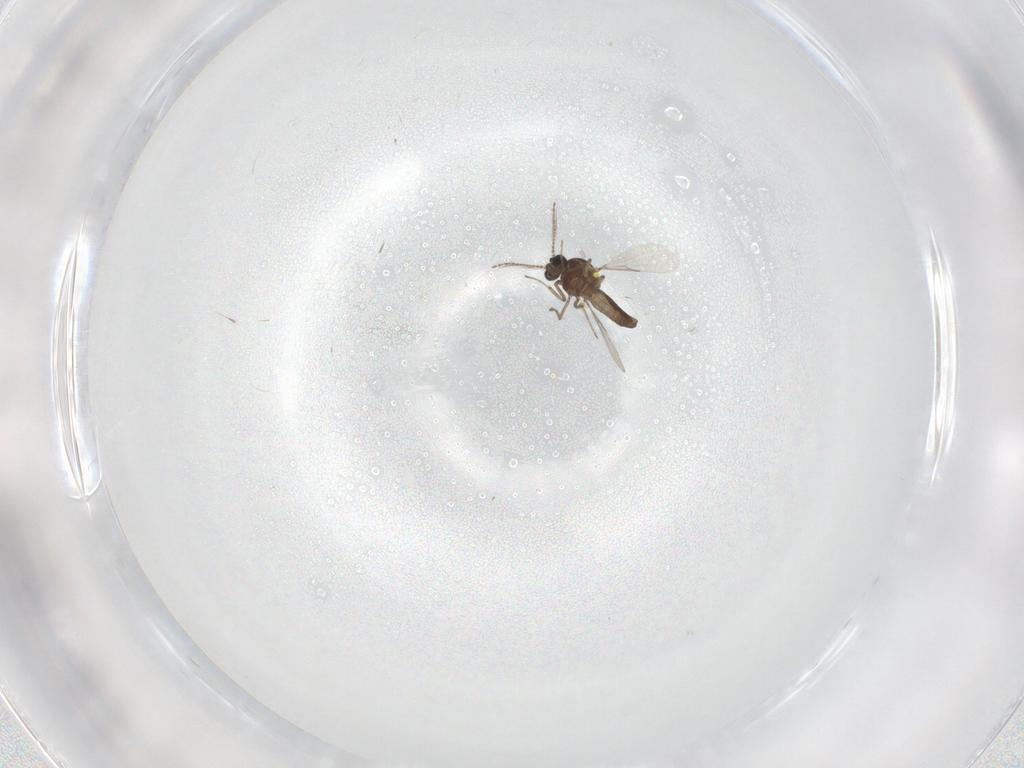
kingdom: Animalia
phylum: Arthropoda
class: Insecta
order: Diptera
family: Ceratopogonidae
